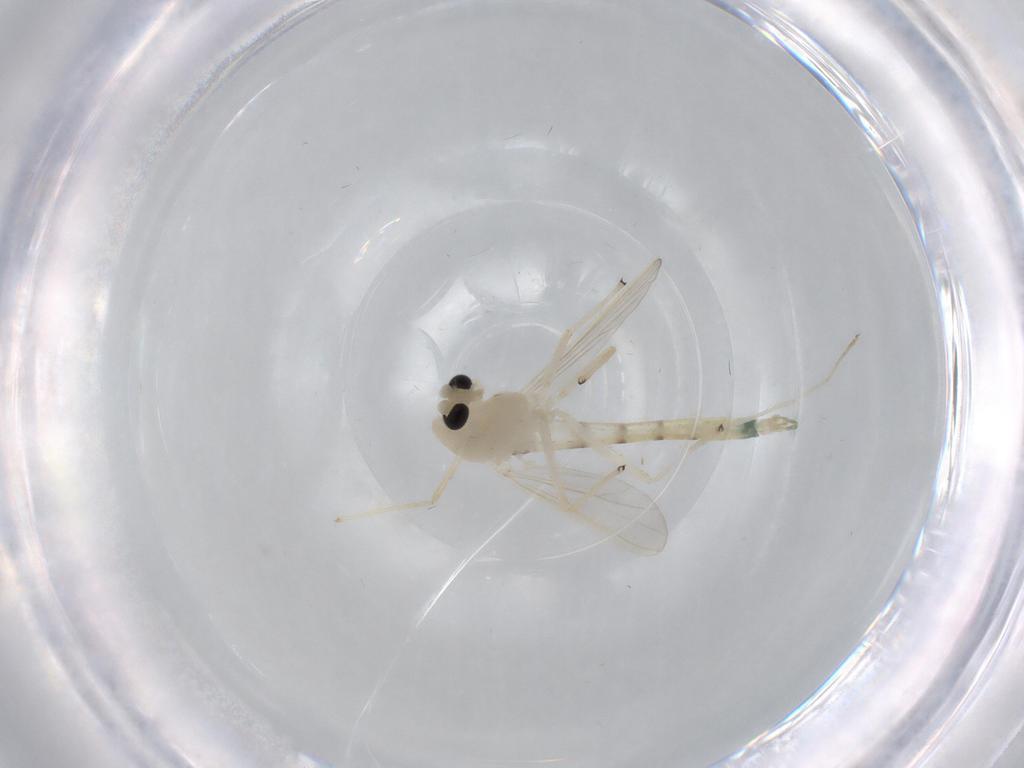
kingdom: Animalia
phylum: Arthropoda
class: Insecta
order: Diptera
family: Chironomidae
